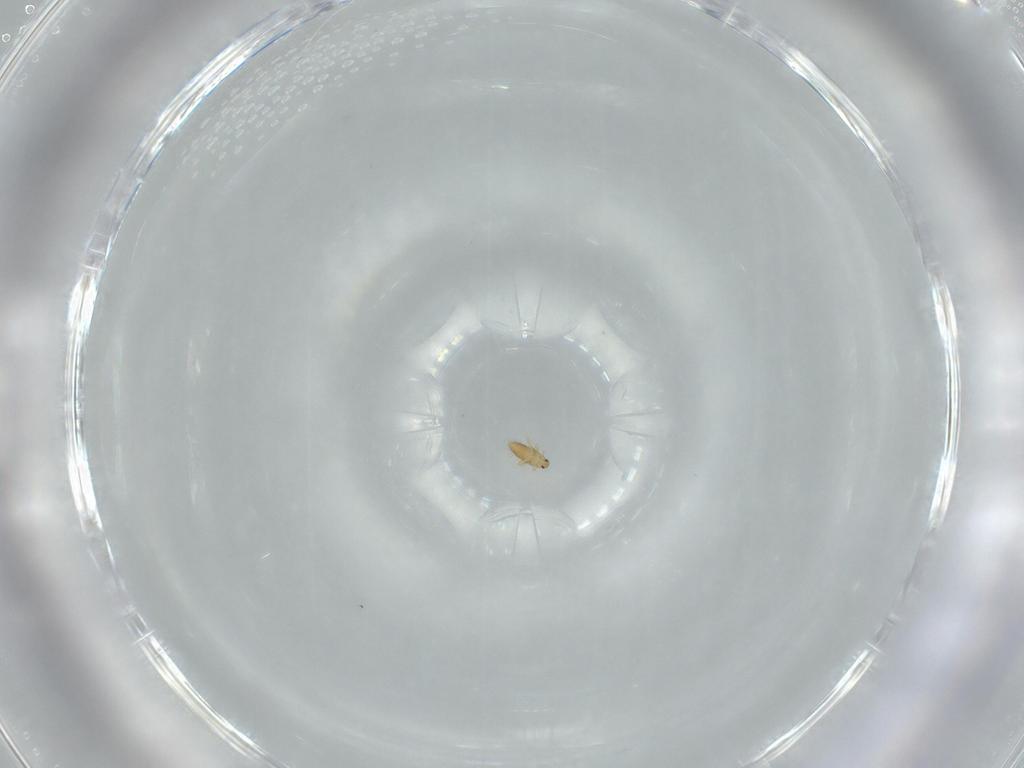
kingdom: Animalia
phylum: Arthropoda
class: Insecta
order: Coleoptera
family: Ripiphoridae
